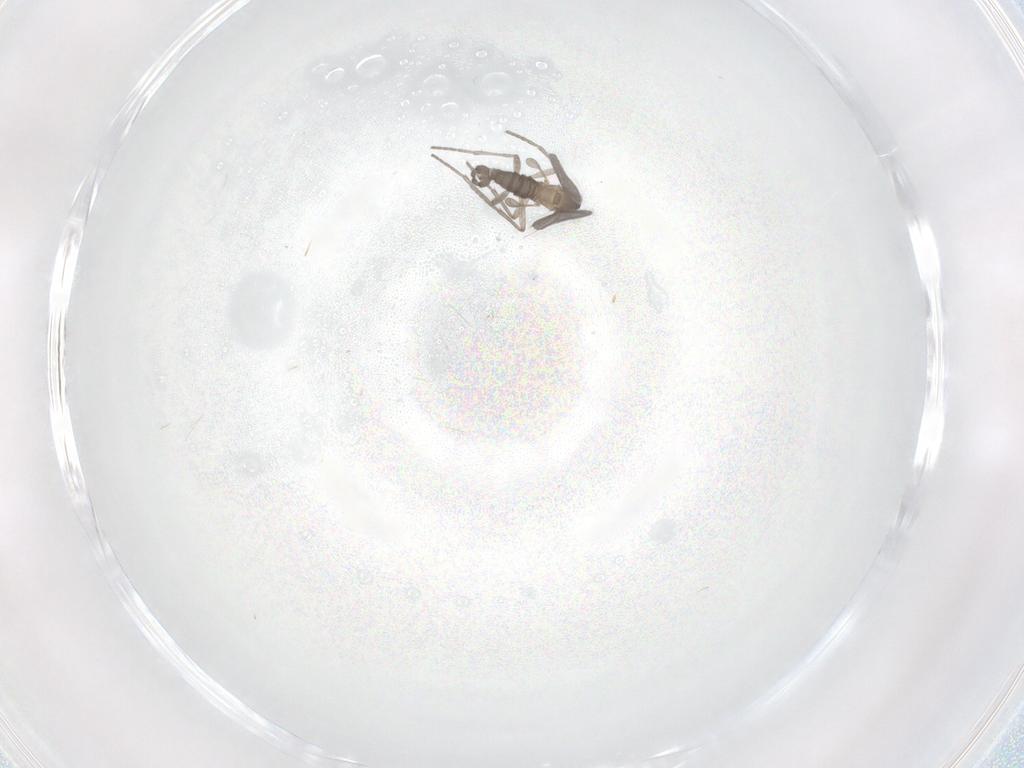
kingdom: Animalia
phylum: Arthropoda
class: Insecta
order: Diptera
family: Sciaridae
